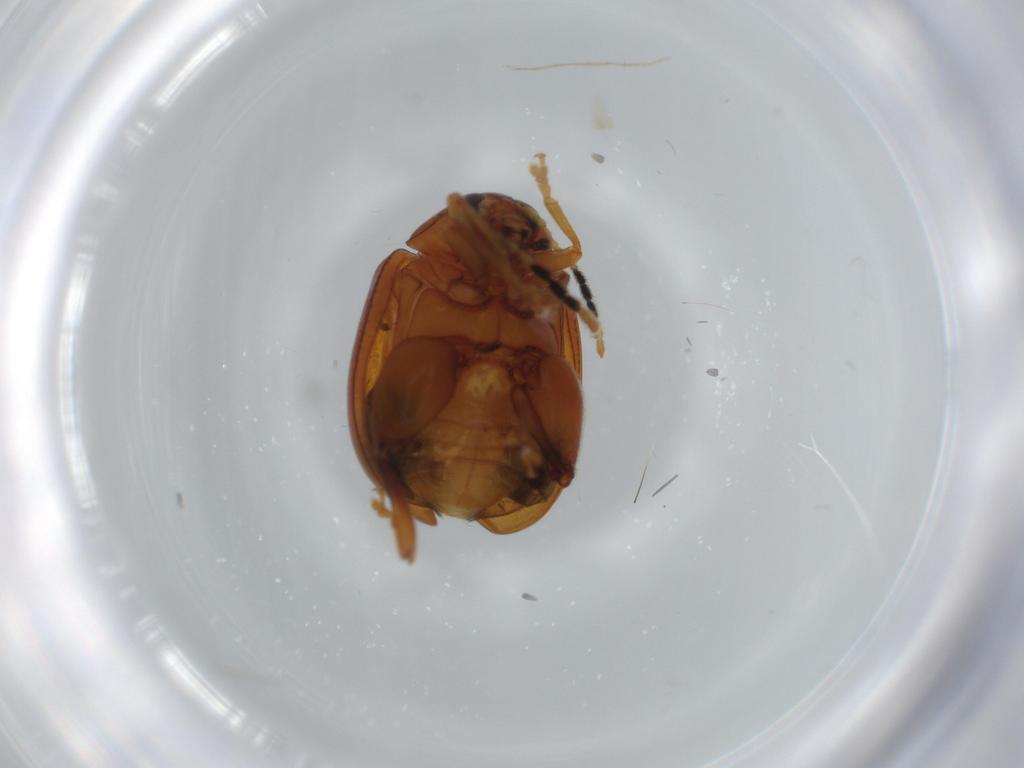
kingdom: Animalia
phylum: Arthropoda
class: Insecta
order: Coleoptera
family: Chrysomelidae
